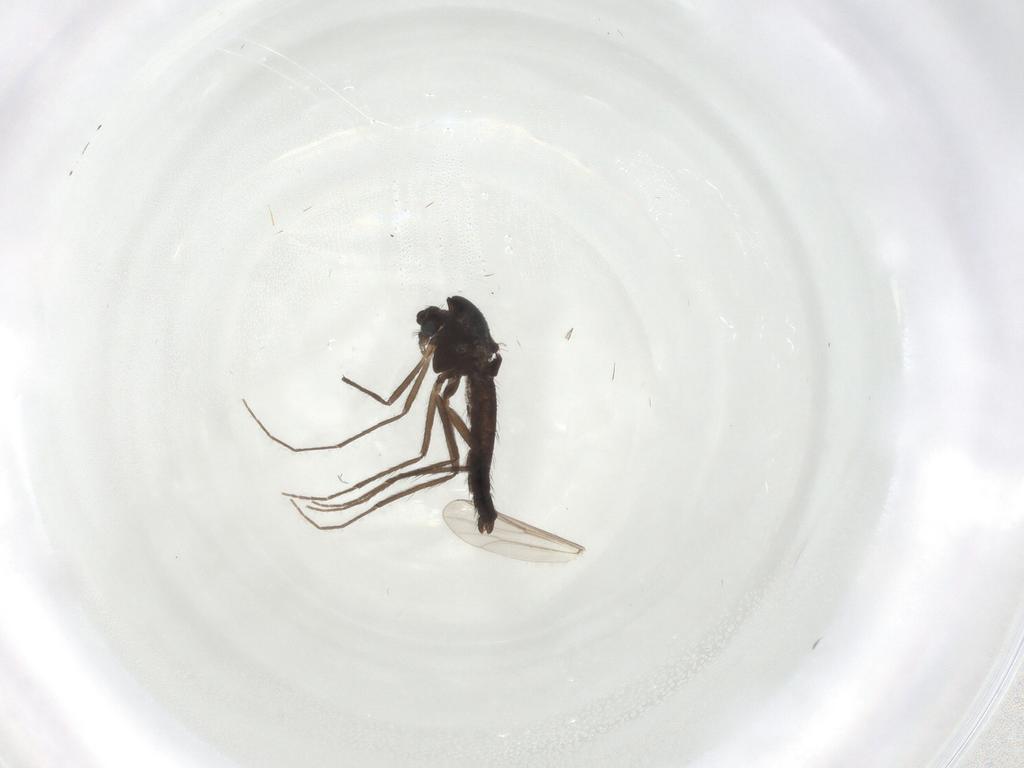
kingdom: Animalia
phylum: Arthropoda
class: Insecta
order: Diptera
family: Chironomidae
